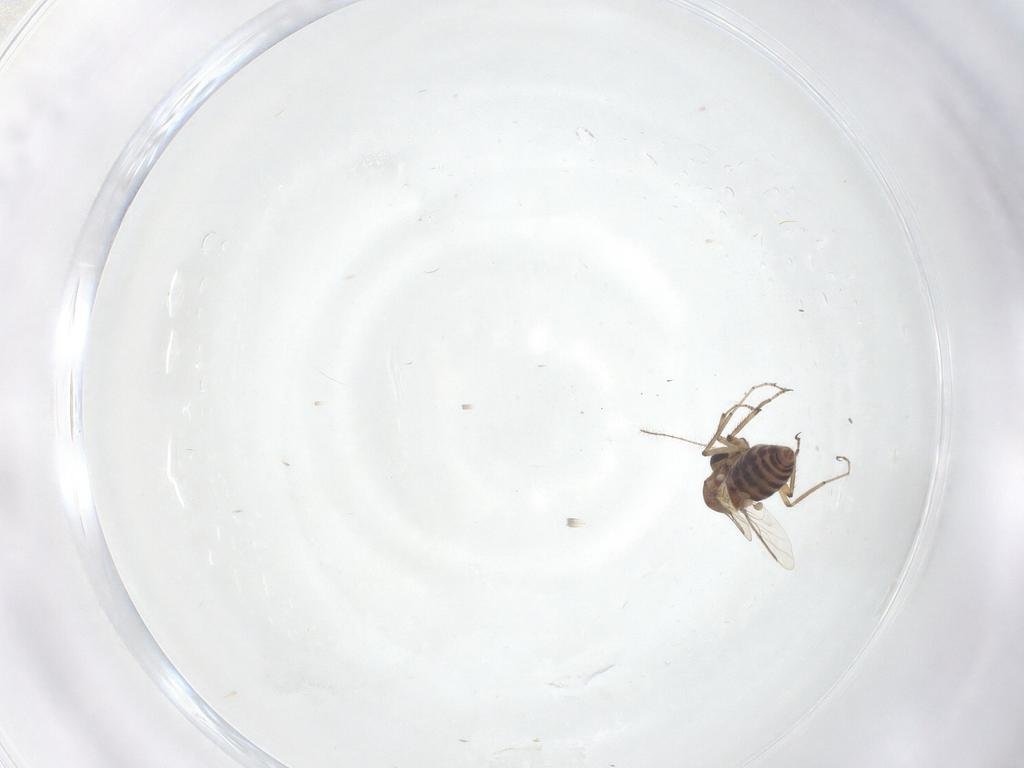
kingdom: Animalia
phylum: Arthropoda
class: Insecta
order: Diptera
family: Ceratopogonidae
